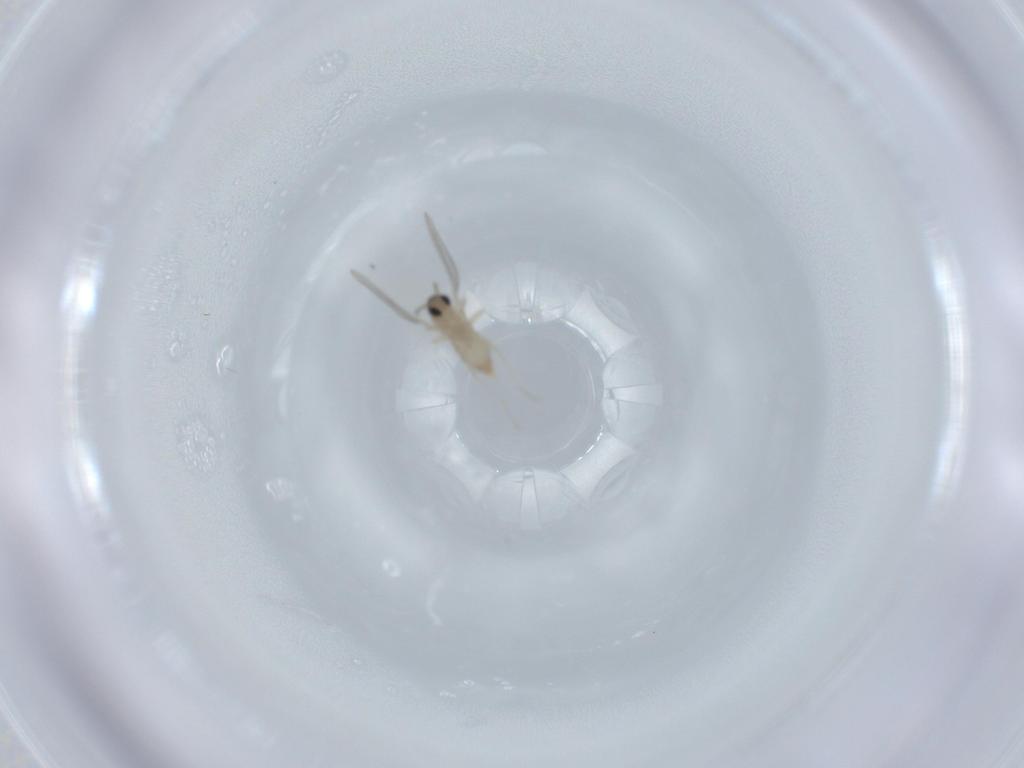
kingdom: Animalia
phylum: Arthropoda
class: Insecta
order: Diptera
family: Cecidomyiidae
